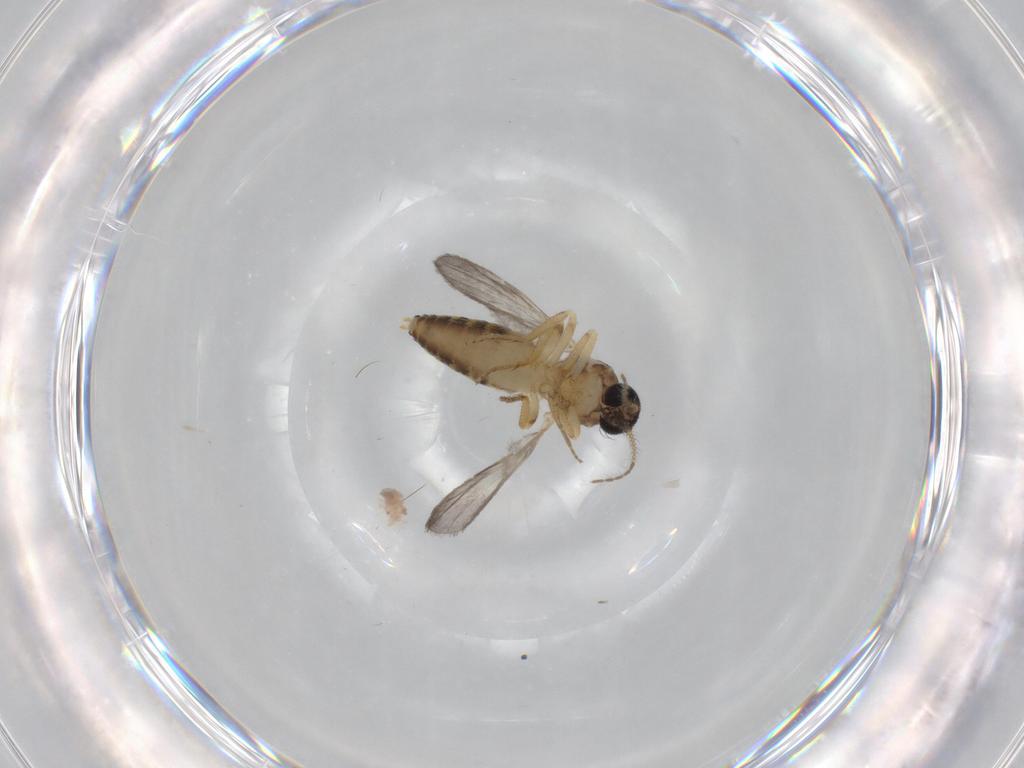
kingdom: Animalia
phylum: Arthropoda
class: Insecta
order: Diptera
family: Ceratopogonidae
